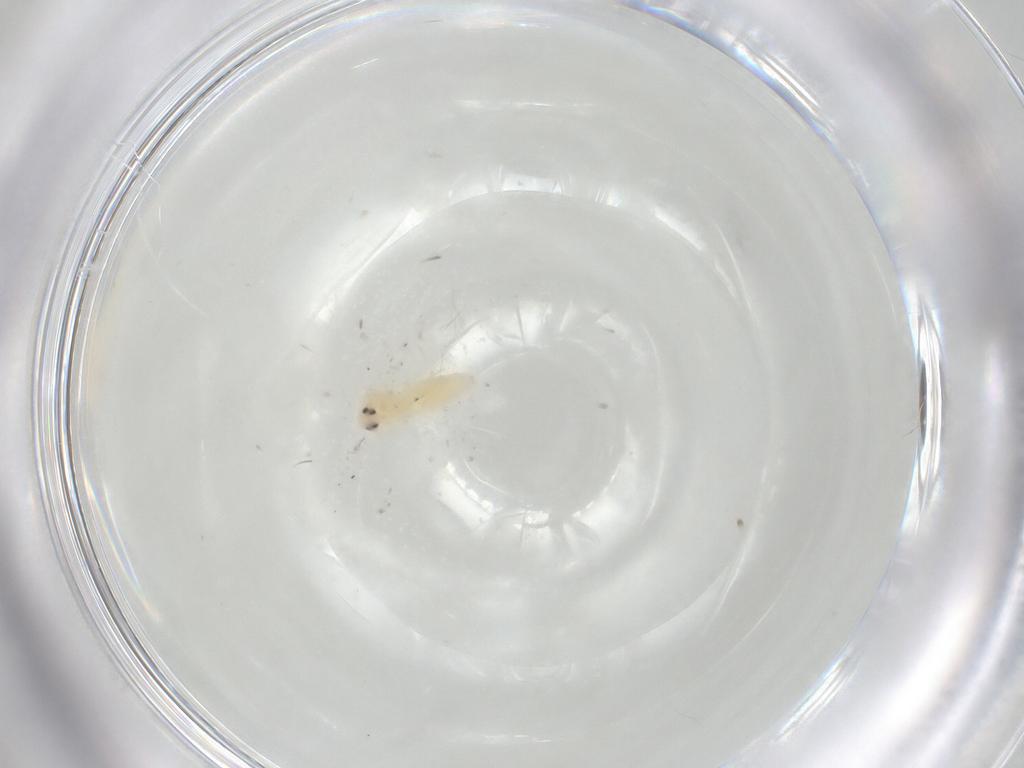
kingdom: Animalia
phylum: Arthropoda
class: Insecta
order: Hemiptera
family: Aleyrodidae
